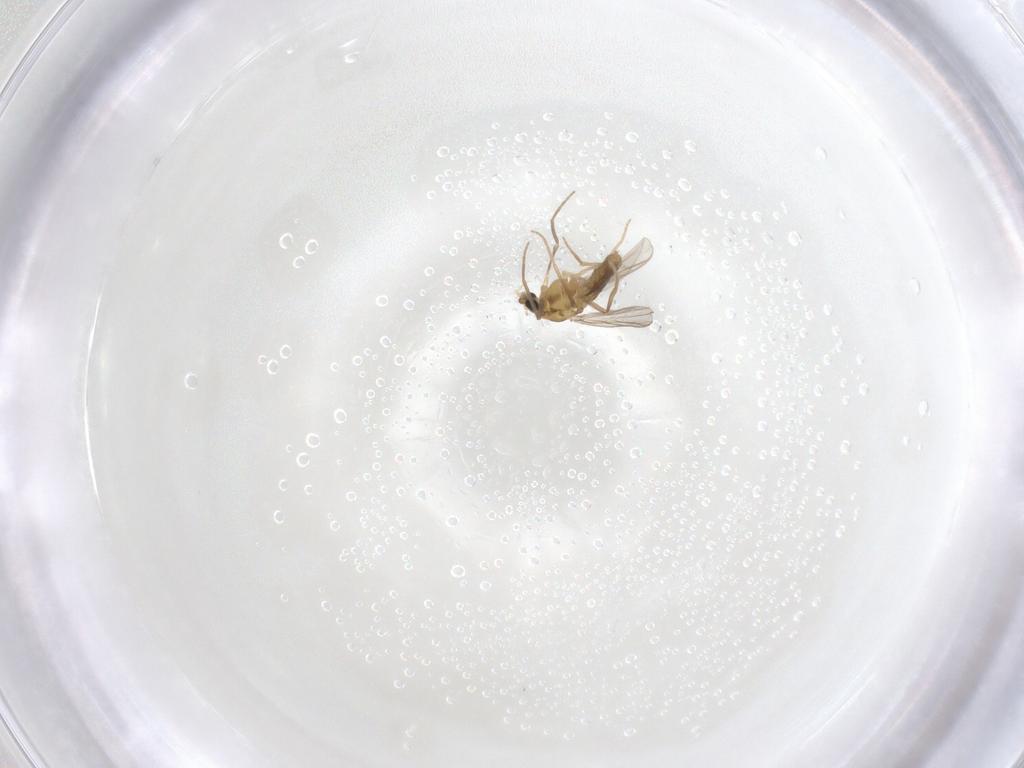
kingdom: Animalia
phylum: Arthropoda
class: Insecta
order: Diptera
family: Chironomidae
